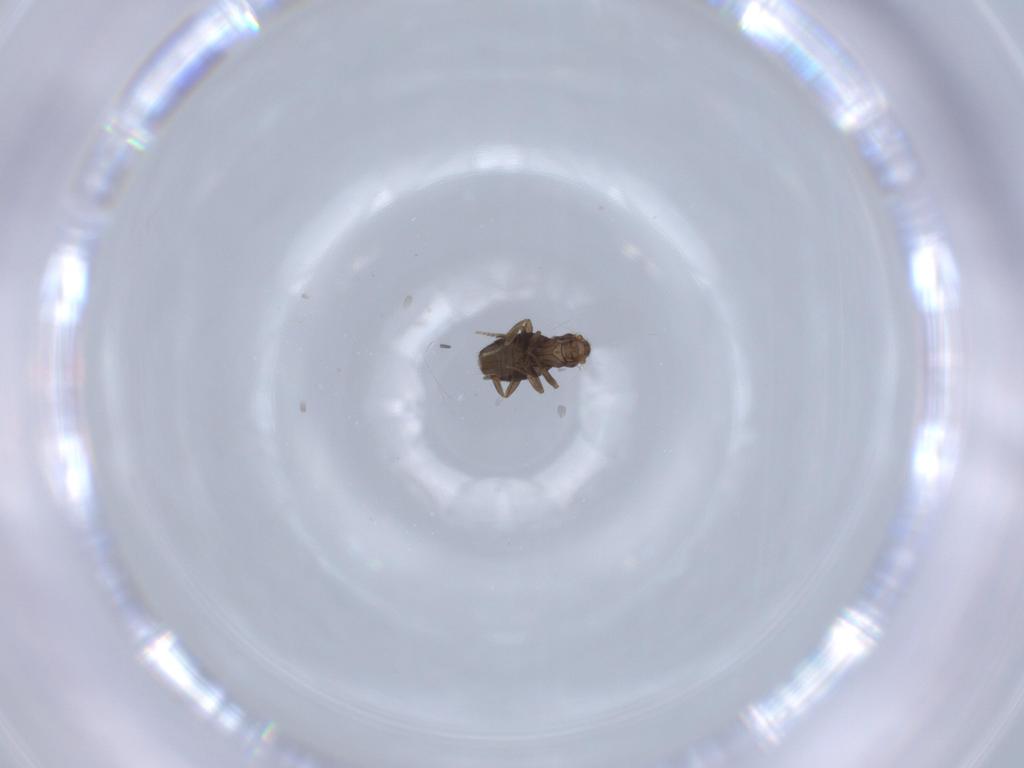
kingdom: Animalia
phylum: Arthropoda
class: Insecta
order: Diptera
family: Phoridae
